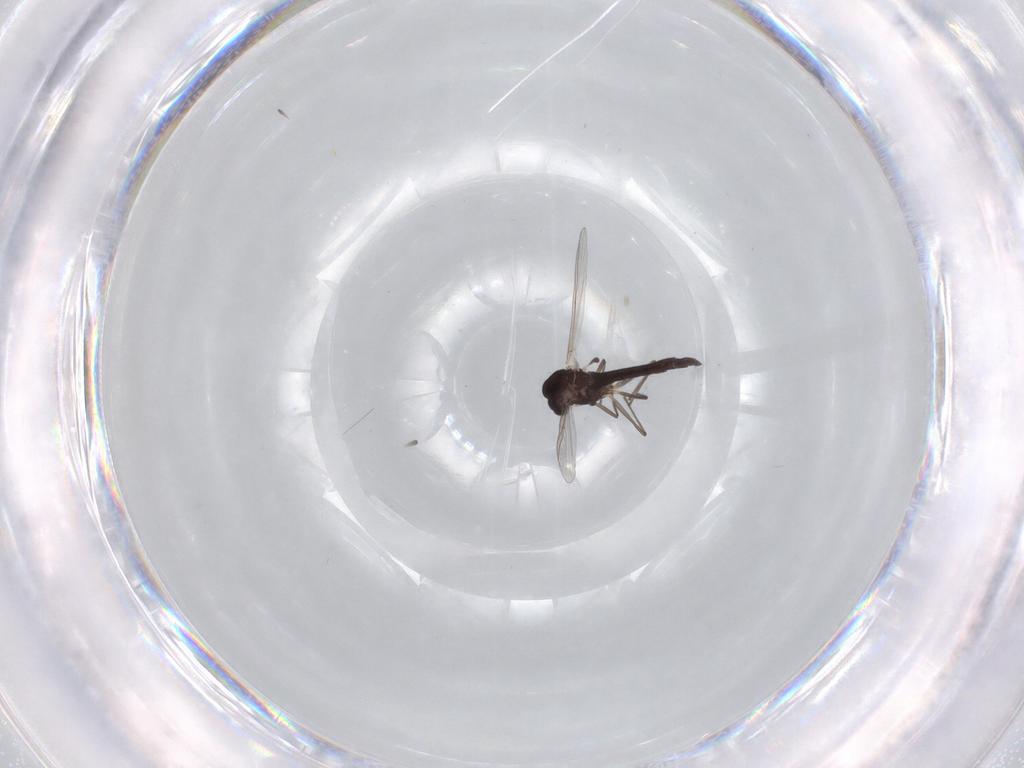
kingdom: Animalia
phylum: Arthropoda
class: Insecta
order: Diptera
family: Chironomidae
